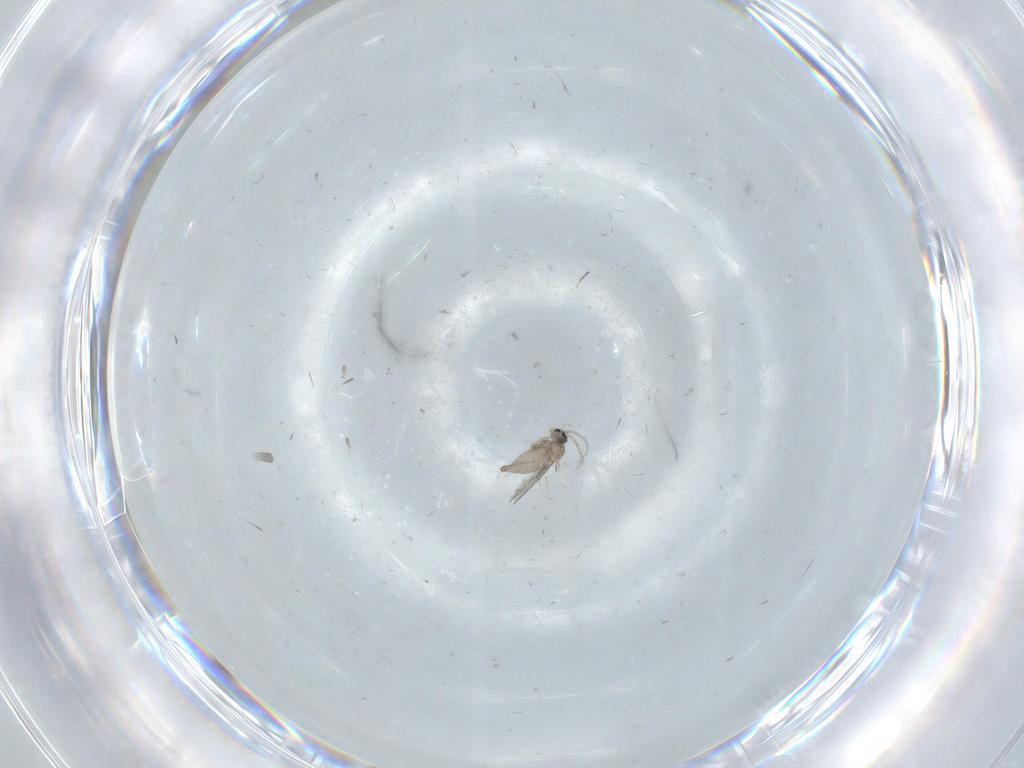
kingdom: Animalia
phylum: Arthropoda
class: Insecta
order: Diptera
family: Cecidomyiidae
